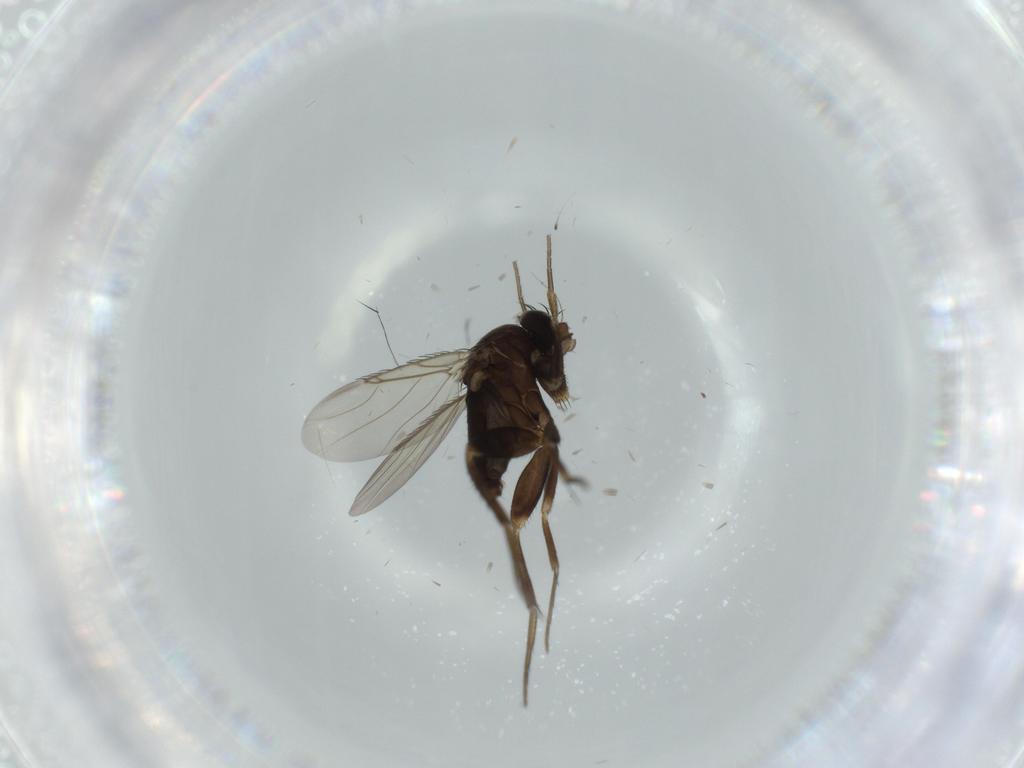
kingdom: Animalia
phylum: Arthropoda
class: Insecta
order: Diptera
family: Phoridae
